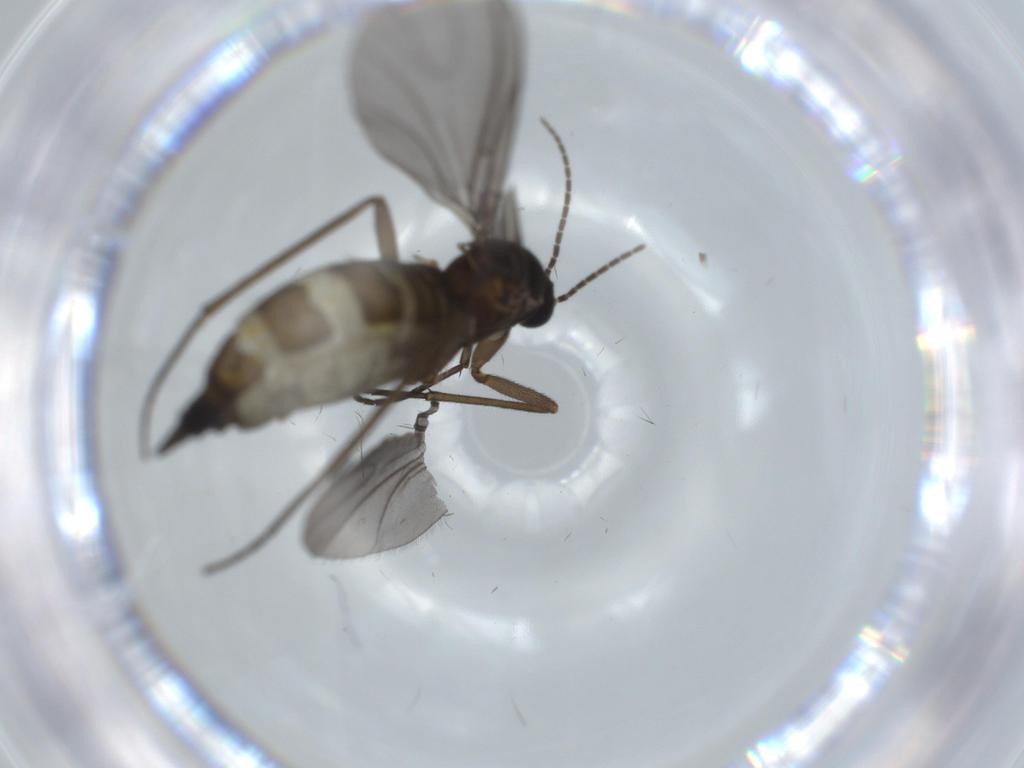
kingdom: Animalia
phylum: Arthropoda
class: Insecta
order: Diptera
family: Sciaridae
